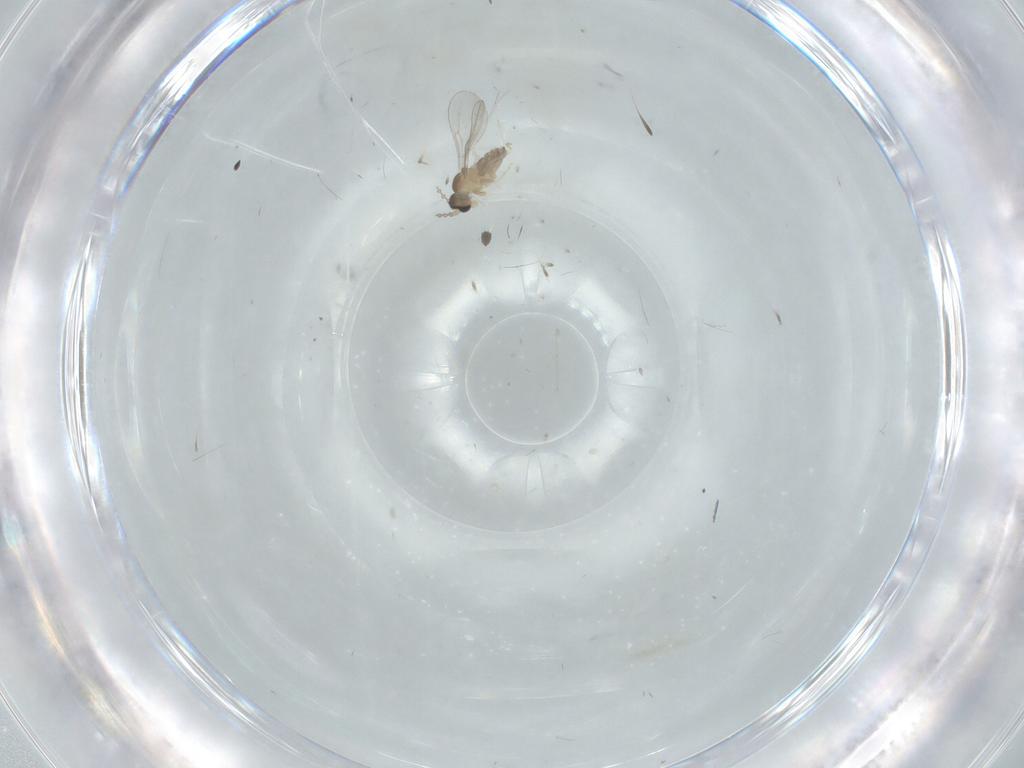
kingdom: Animalia
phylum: Arthropoda
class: Insecta
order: Diptera
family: Cecidomyiidae
